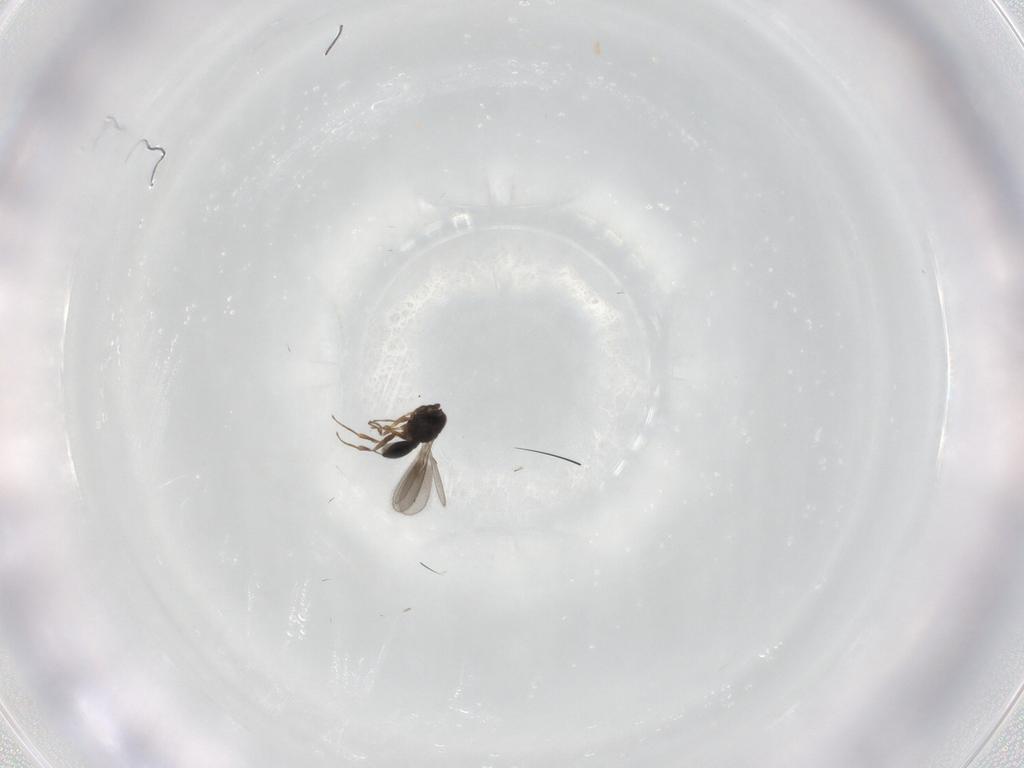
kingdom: Animalia
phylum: Arthropoda
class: Insecta
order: Hymenoptera
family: Scelionidae
